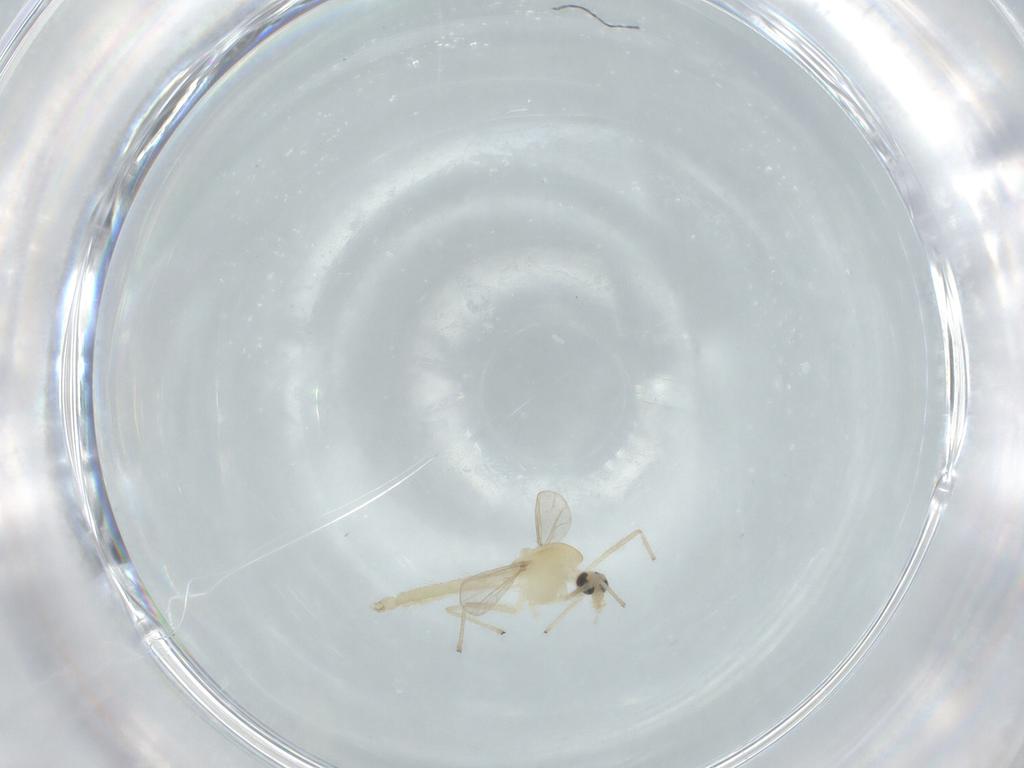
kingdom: Animalia
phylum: Arthropoda
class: Insecta
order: Diptera
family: Chironomidae
